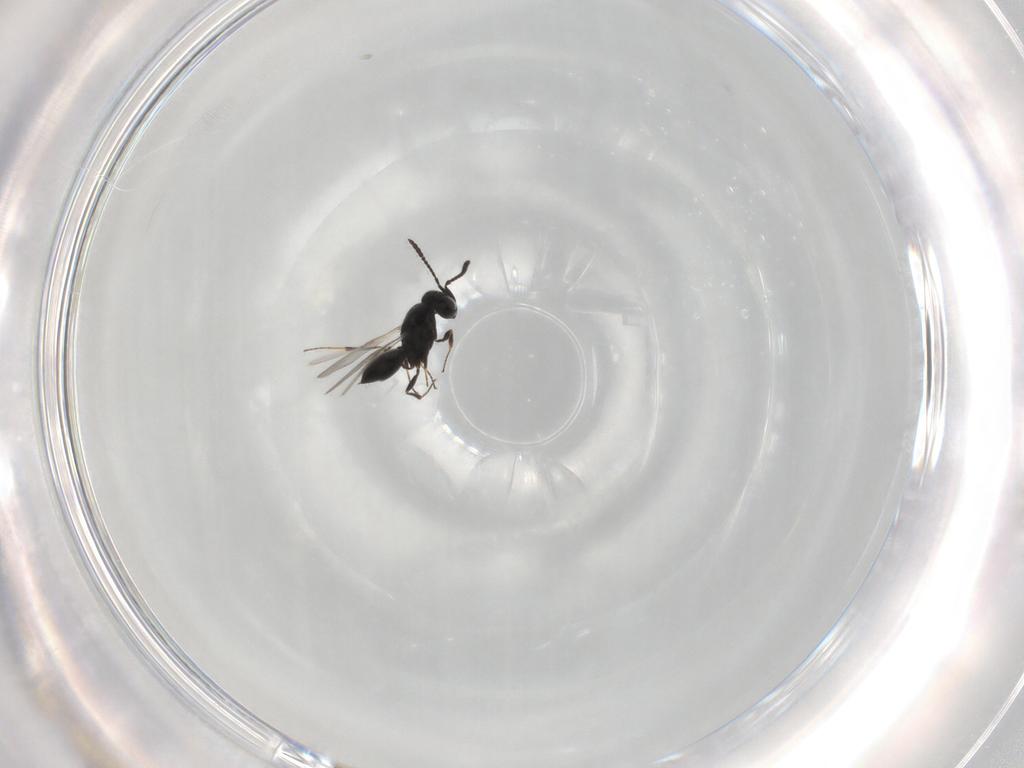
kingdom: Animalia
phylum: Arthropoda
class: Insecta
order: Hymenoptera
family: Scelionidae
